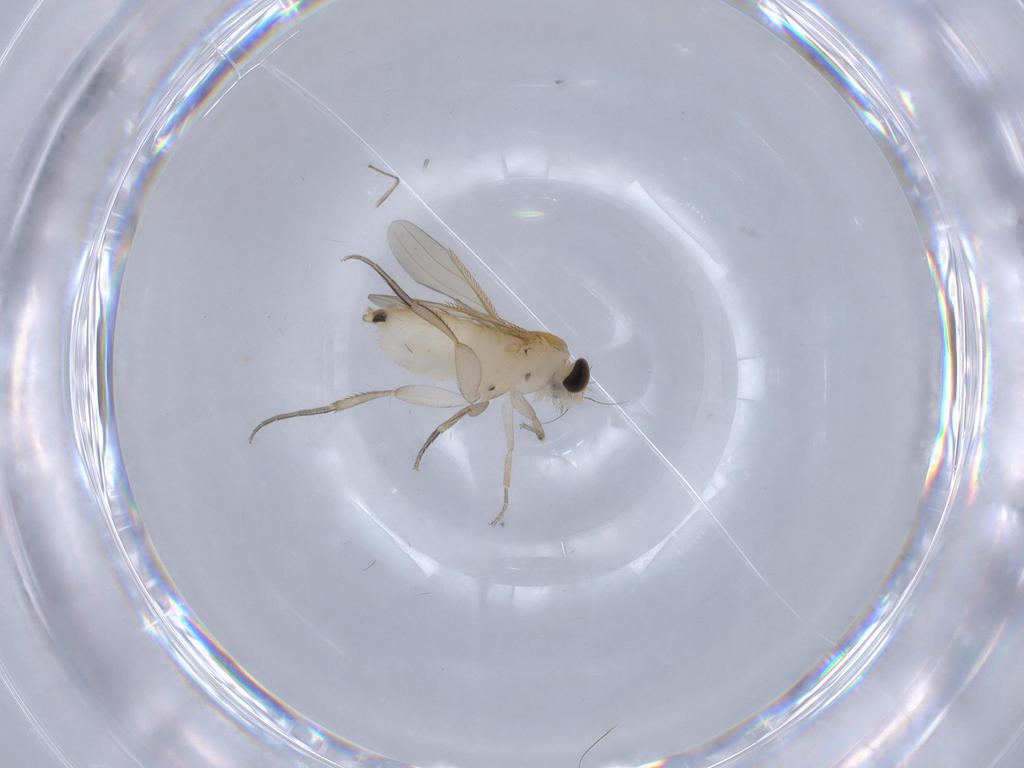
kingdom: Animalia
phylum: Arthropoda
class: Insecta
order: Diptera
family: Chironomidae
